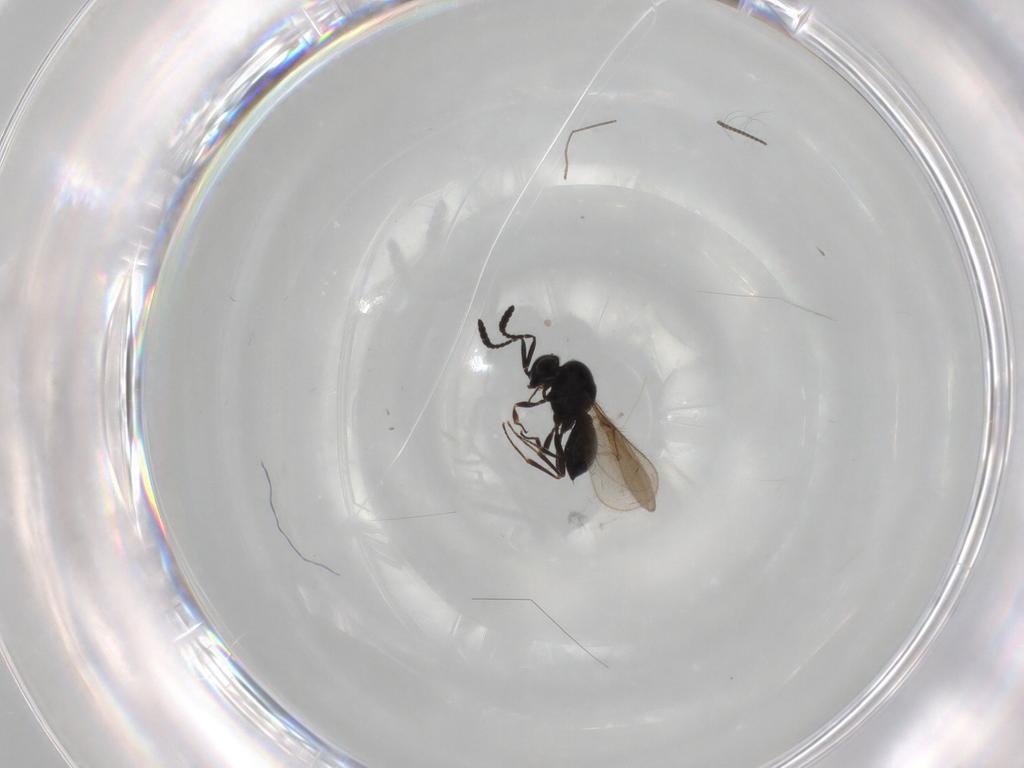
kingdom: Animalia
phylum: Arthropoda
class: Insecta
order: Hymenoptera
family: Scelionidae
